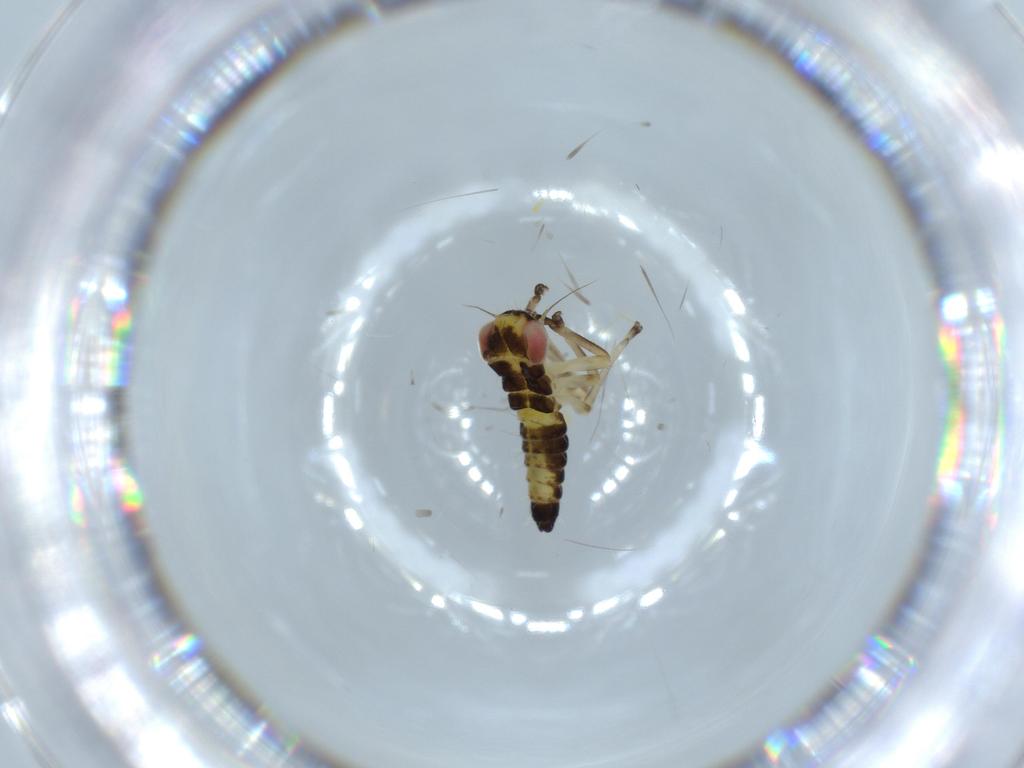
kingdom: Animalia
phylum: Arthropoda
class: Insecta
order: Hemiptera
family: Cicadellidae
